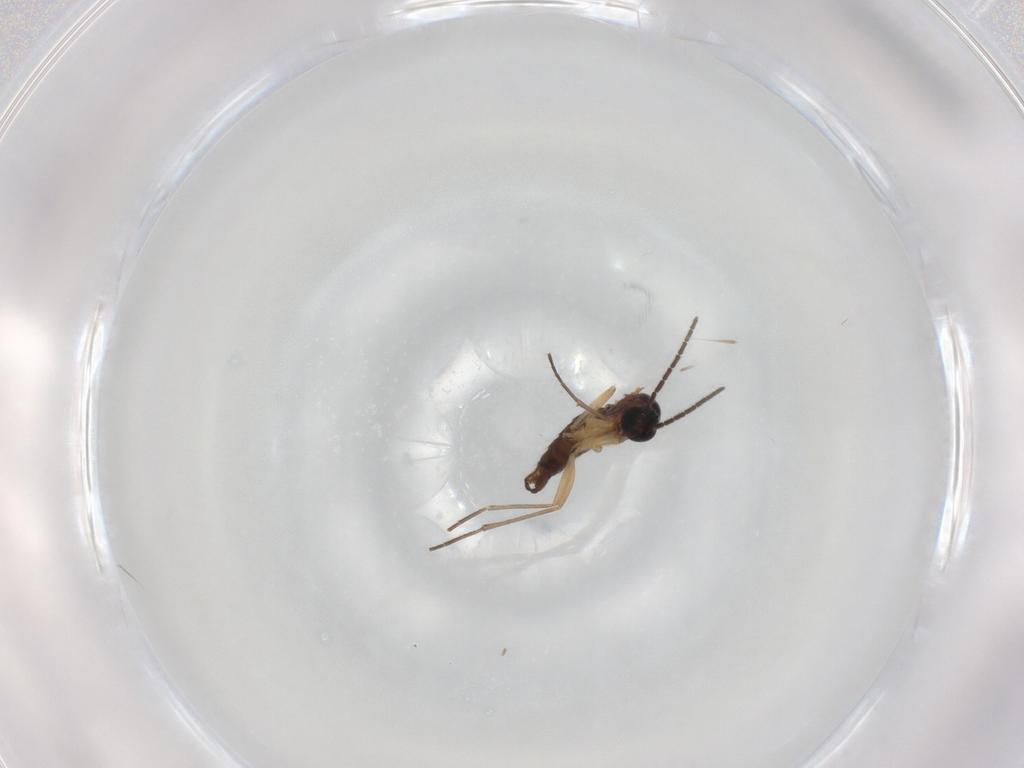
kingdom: Animalia
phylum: Arthropoda
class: Insecta
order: Diptera
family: Sciaridae
